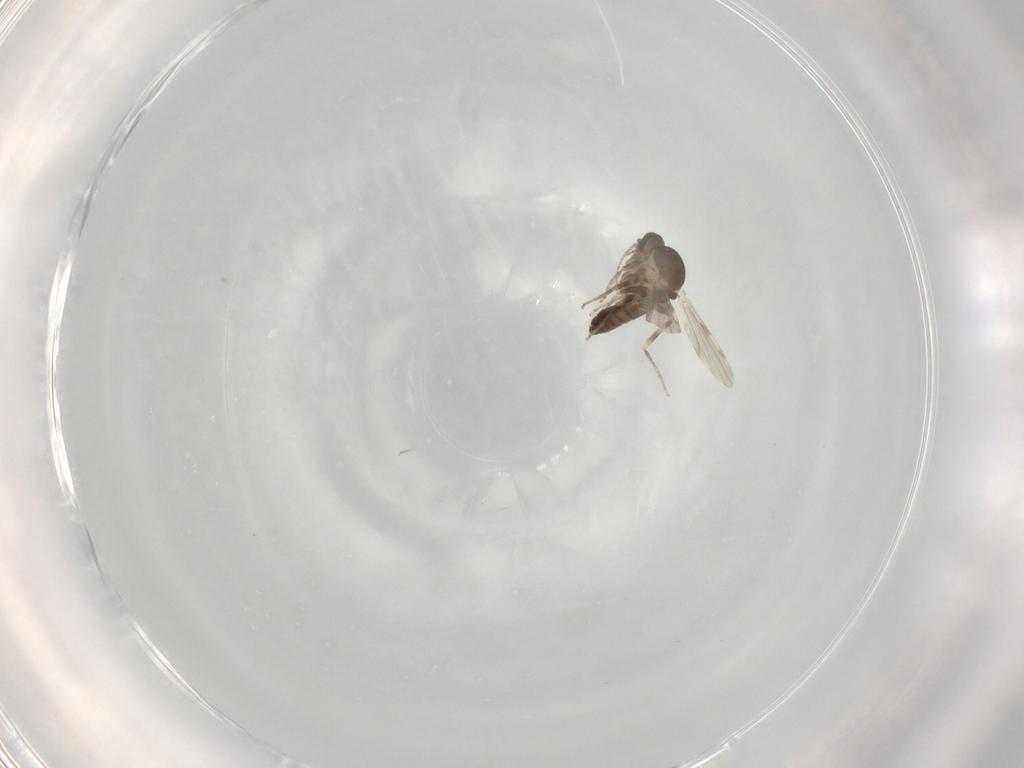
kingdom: Animalia
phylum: Arthropoda
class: Insecta
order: Diptera
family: Ceratopogonidae
